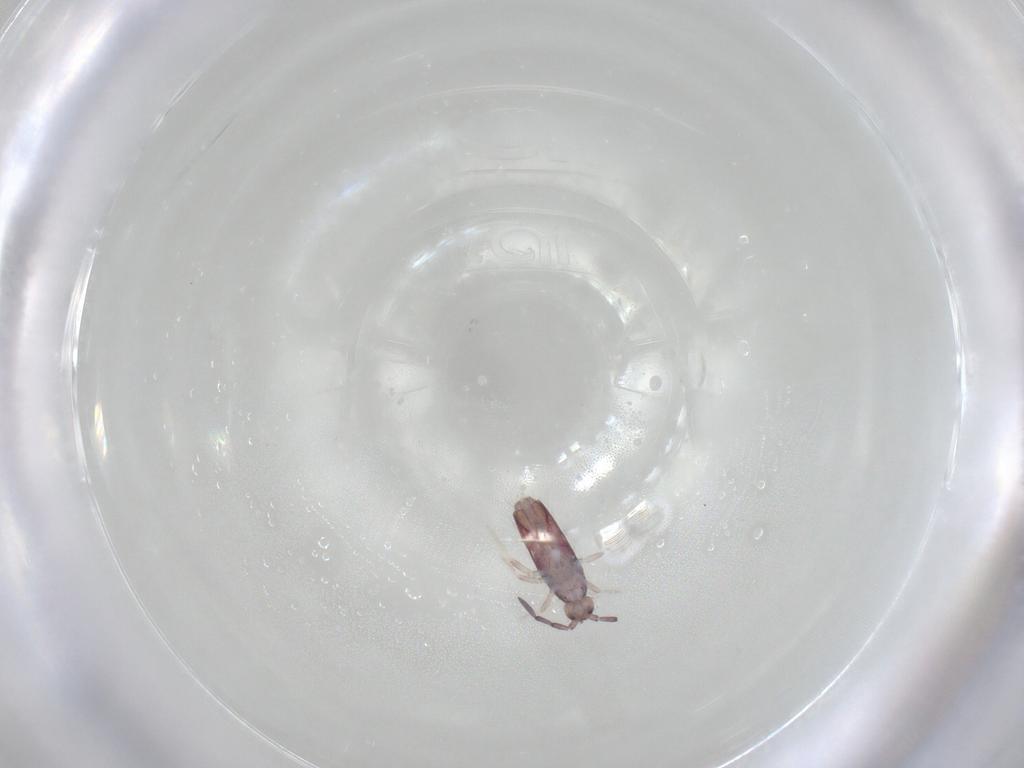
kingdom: Animalia
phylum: Arthropoda
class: Collembola
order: Entomobryomorpha
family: Entomobryidae
